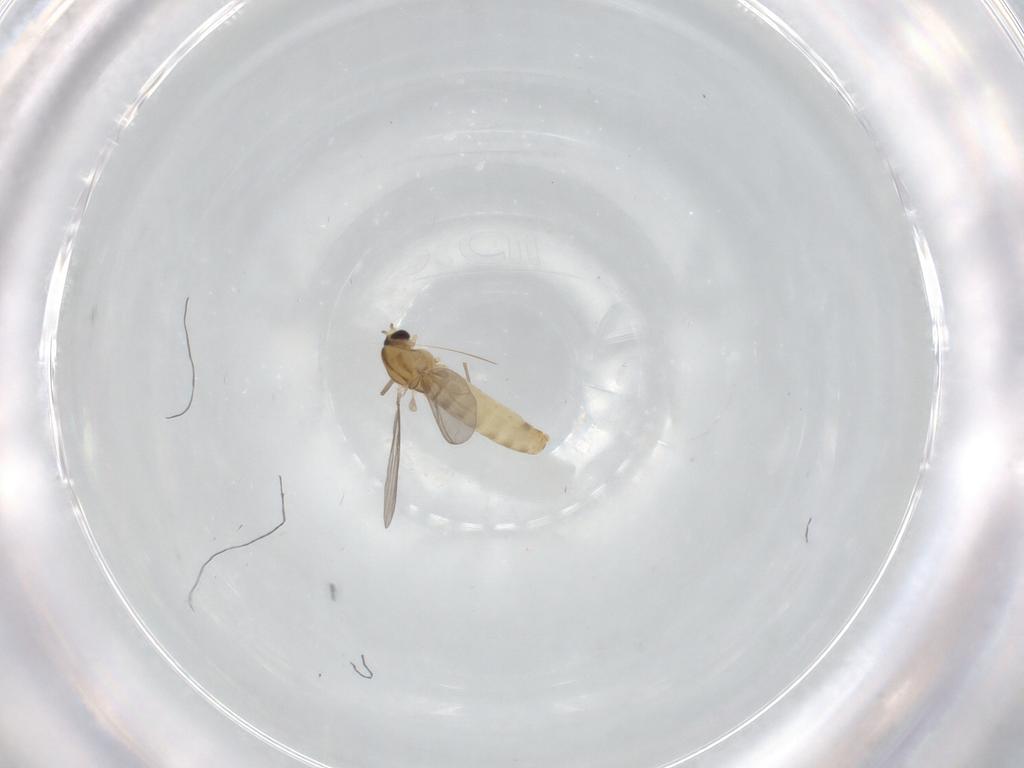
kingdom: Animalia
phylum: Arthropoda
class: Insecta
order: Diptera
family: Chironomidae
